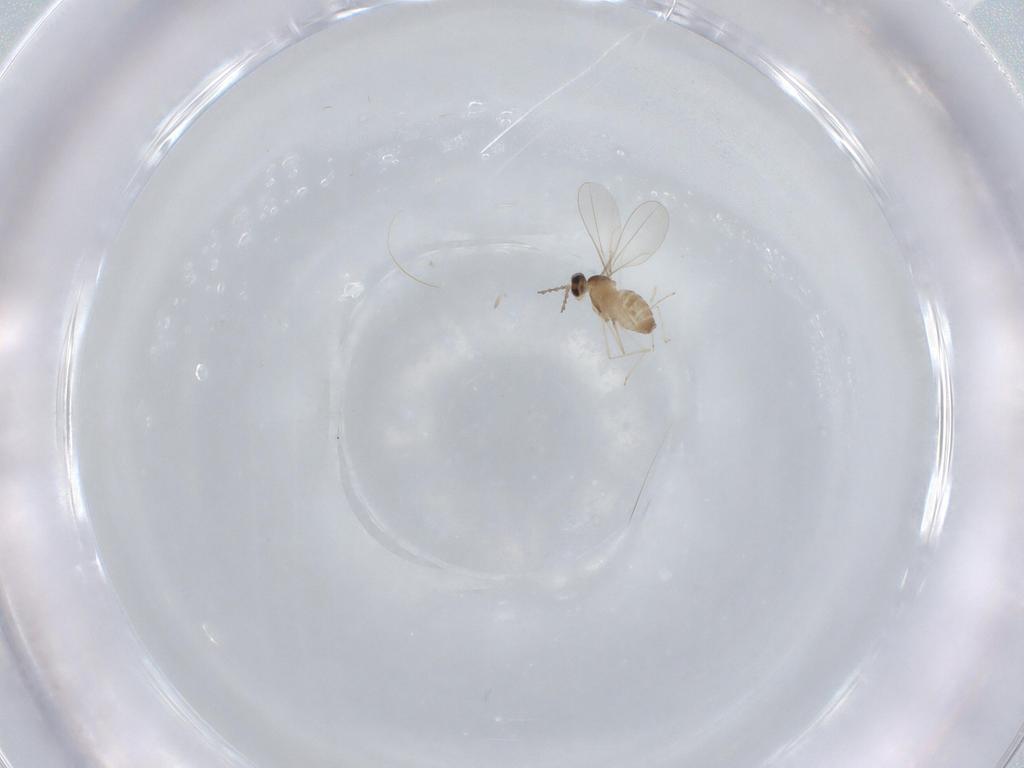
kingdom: Animalia
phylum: Arthropoda
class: Insecta
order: Diptera
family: Cecidomyiidae
